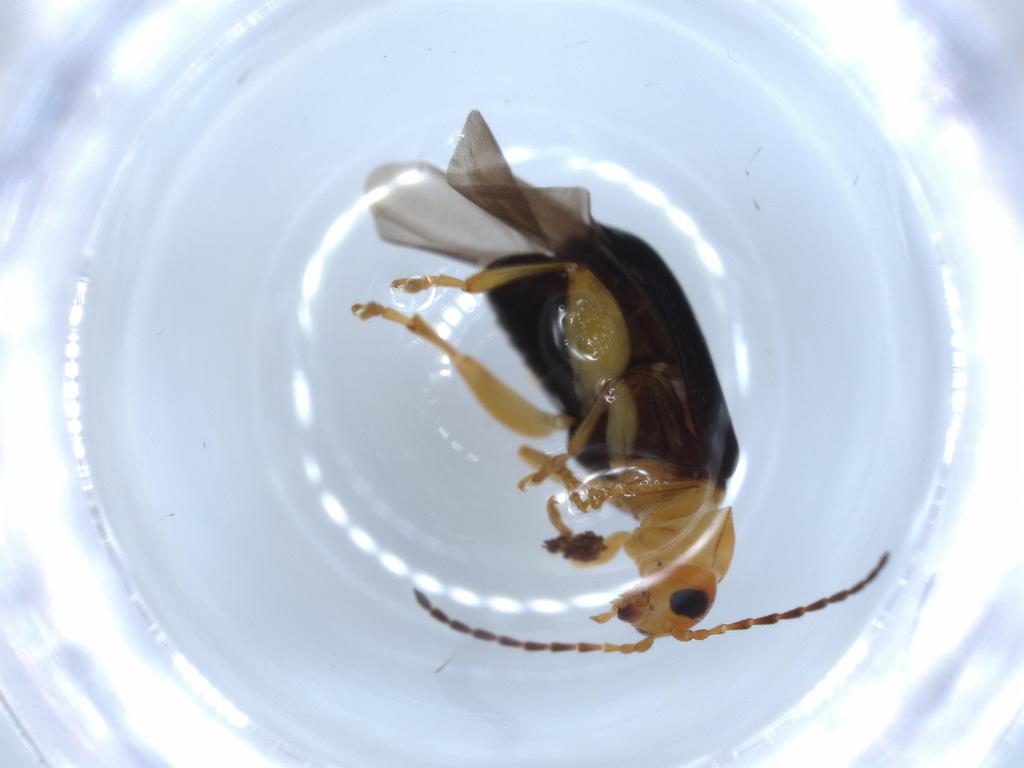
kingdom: Animalia
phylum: Arthropoda
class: Insecta
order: Coleoptera
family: Chrysomelidae
